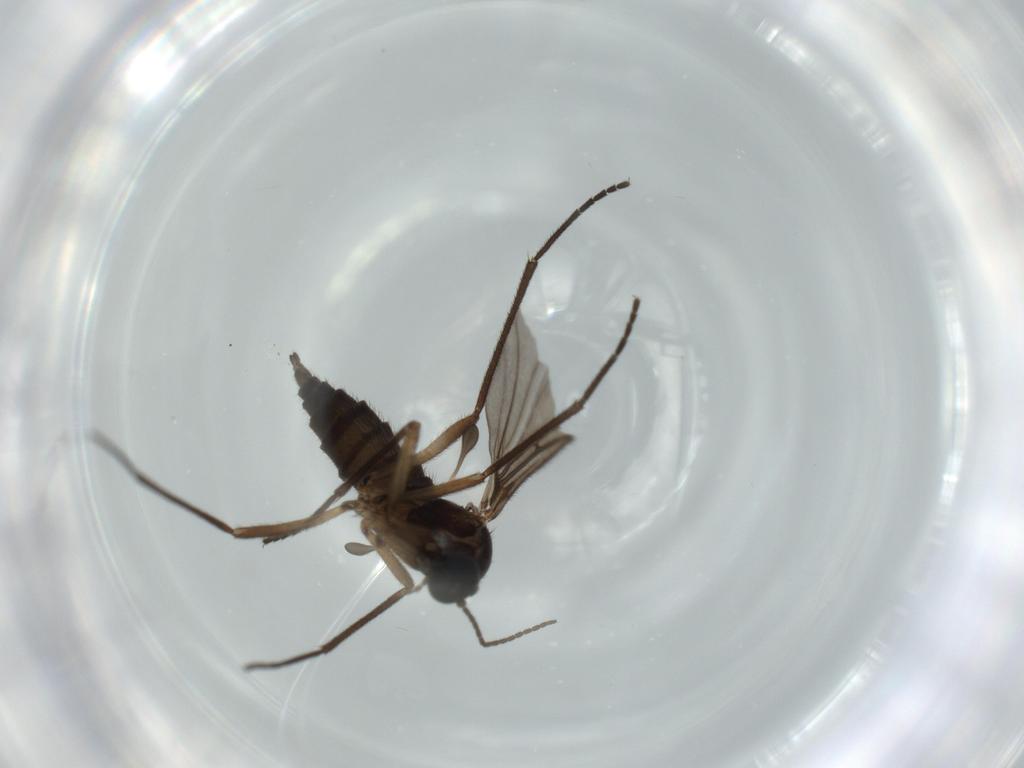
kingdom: Animalia
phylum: Arthropoda
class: Insecta
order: Diptera
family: Sciaridae
